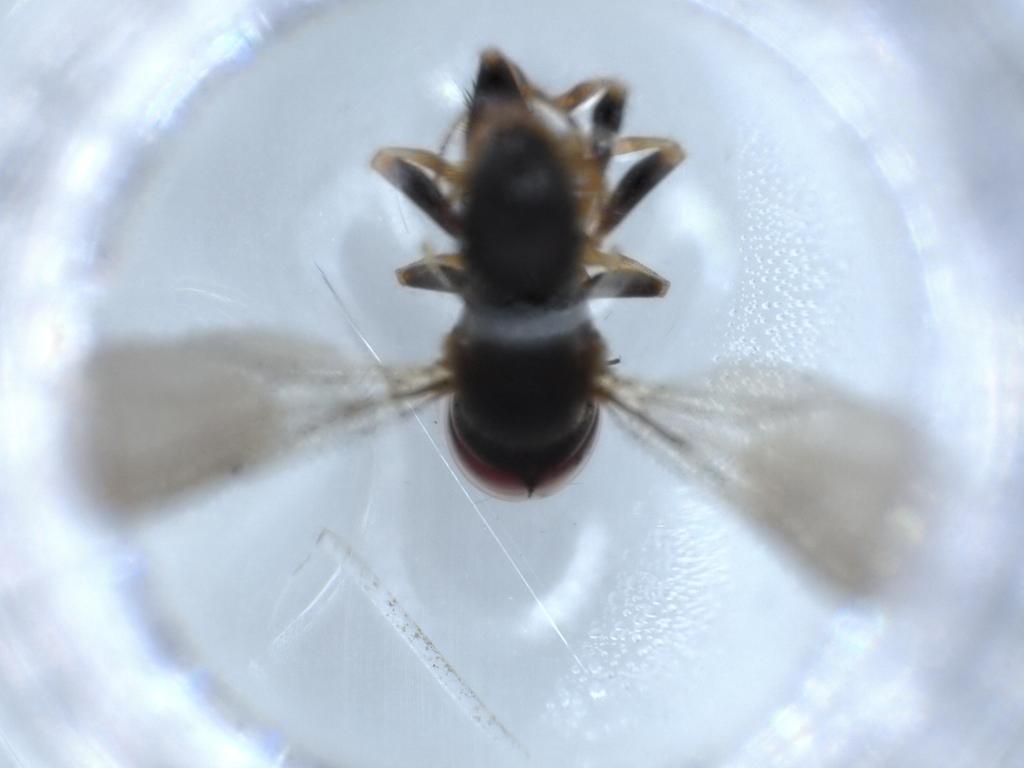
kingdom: Animalia
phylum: Arthropoda
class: Insecta
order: Diptera
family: Pipunculidae
